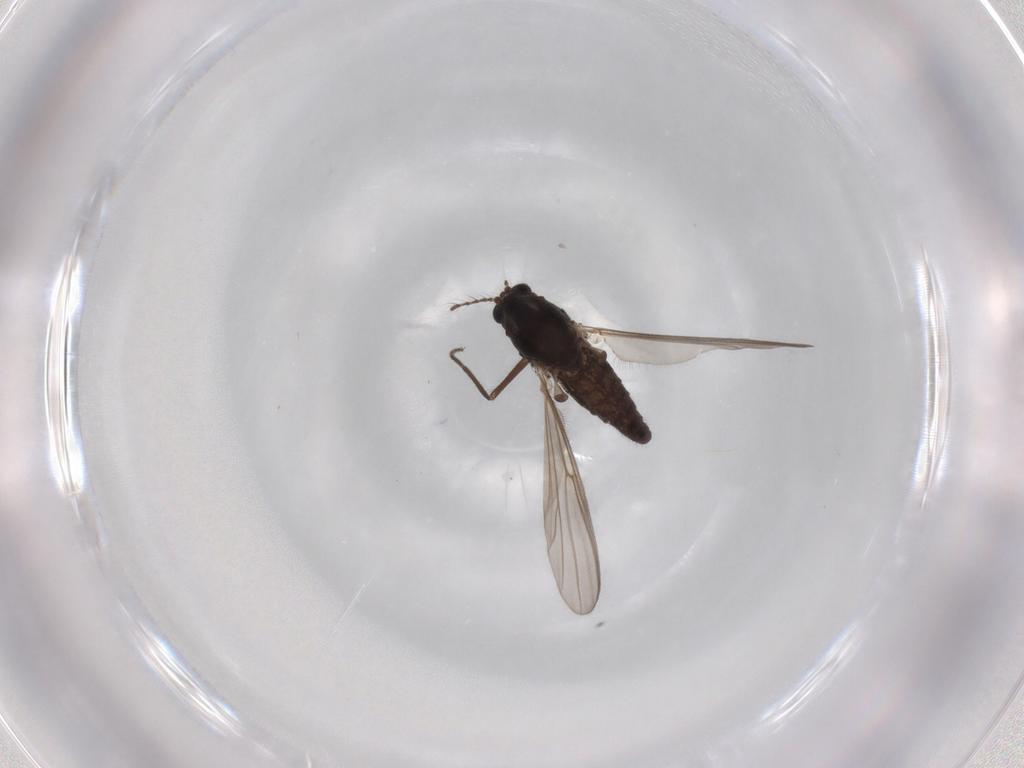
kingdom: Animalia
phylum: Arthropoda
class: Insecta
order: Diptera
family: Chironomidae
